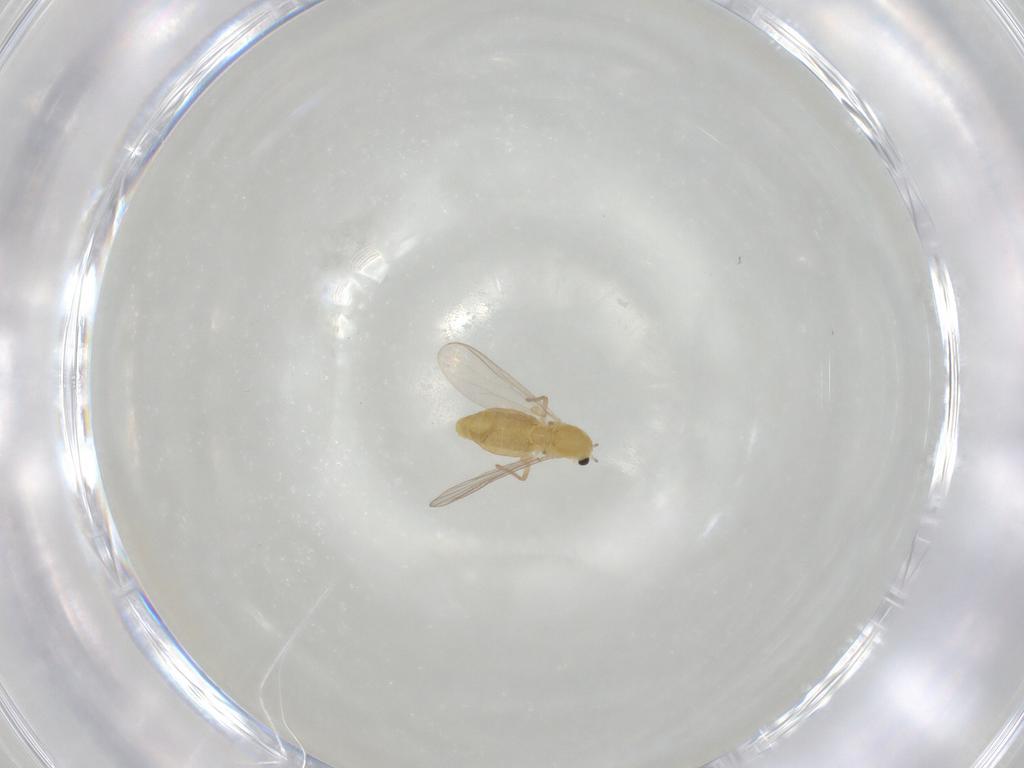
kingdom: Animalia
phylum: Arthropoda
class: Insecta
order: Diptera
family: Chironomidae
